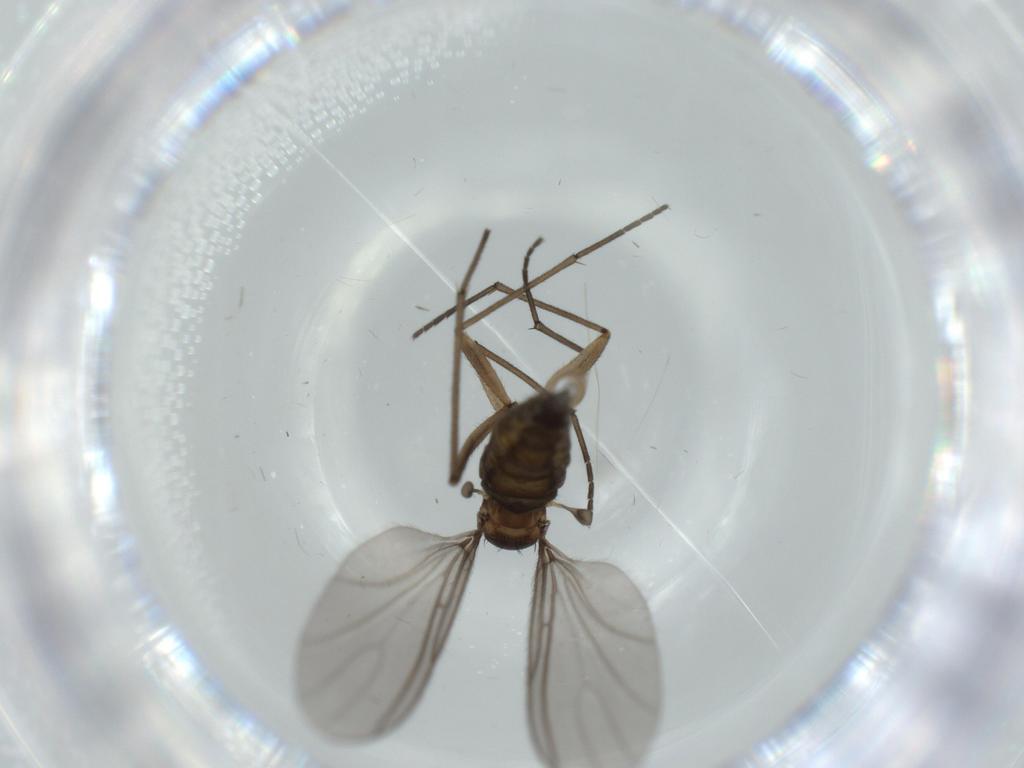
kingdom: Animalia
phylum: Arthropoda
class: Insecta
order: Diptera
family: Sciaridae
